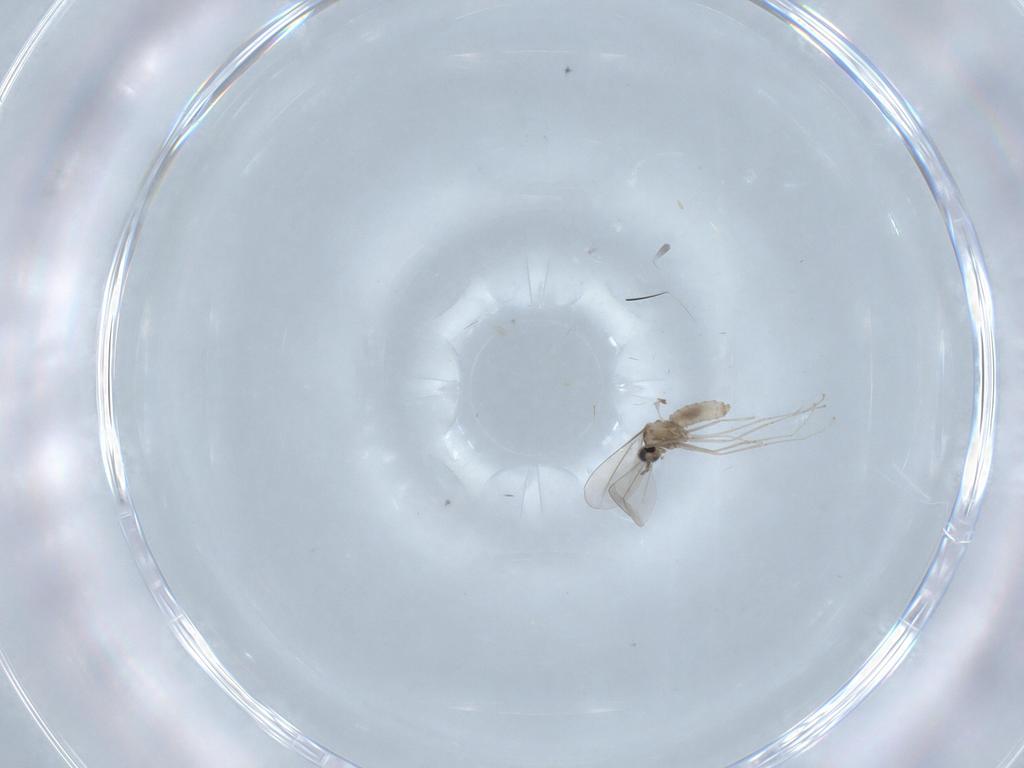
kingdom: Animalia
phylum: Arthropoda
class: Insecta
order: Diptera
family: Cecidomyiidae
